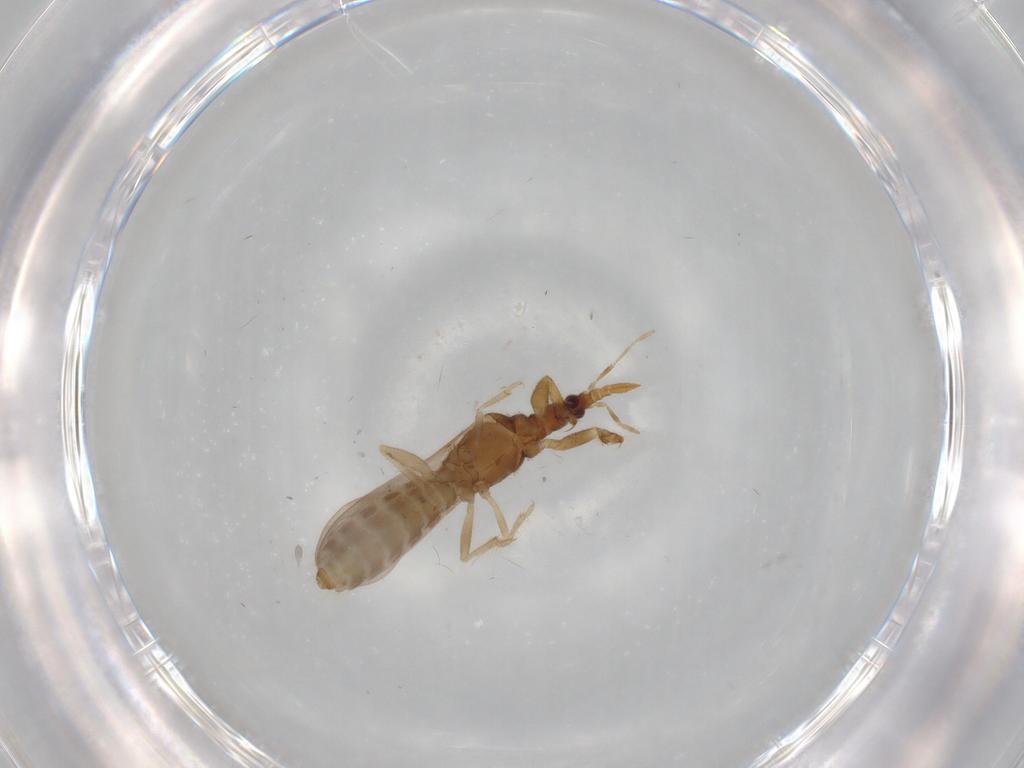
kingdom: Animalia
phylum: Arthropoda
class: Insecta
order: Hemiptera
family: Enicocephalidae
